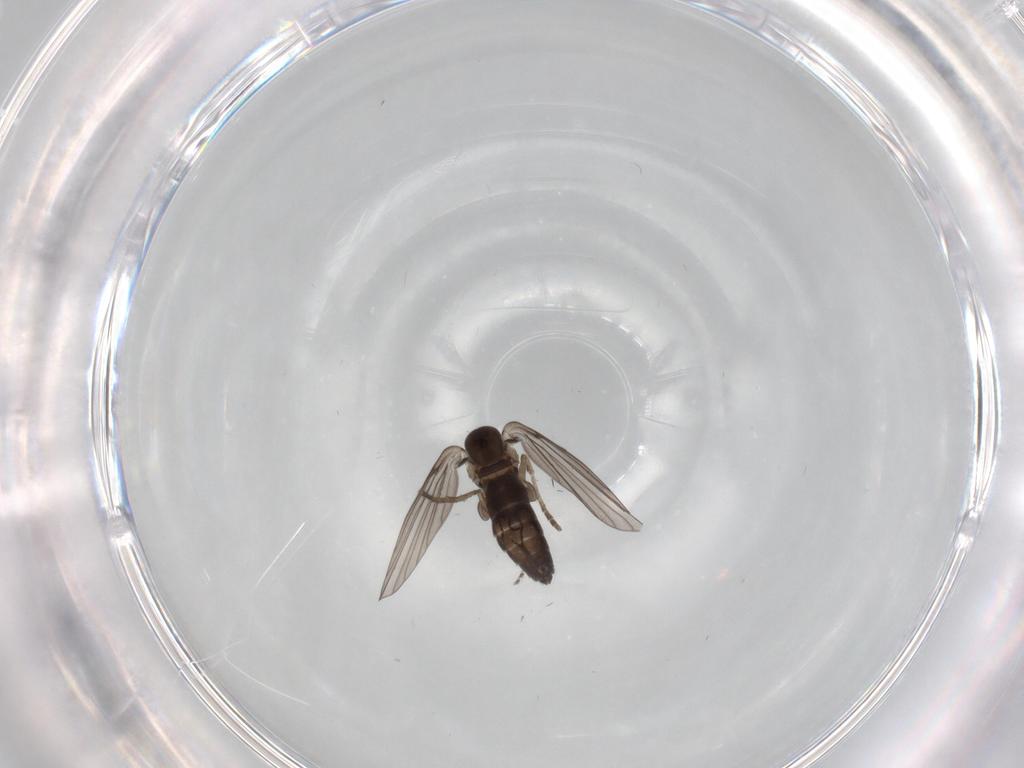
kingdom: Animalia
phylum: Arthropoda
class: Insecta
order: Diptera
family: Dolichopodidae
